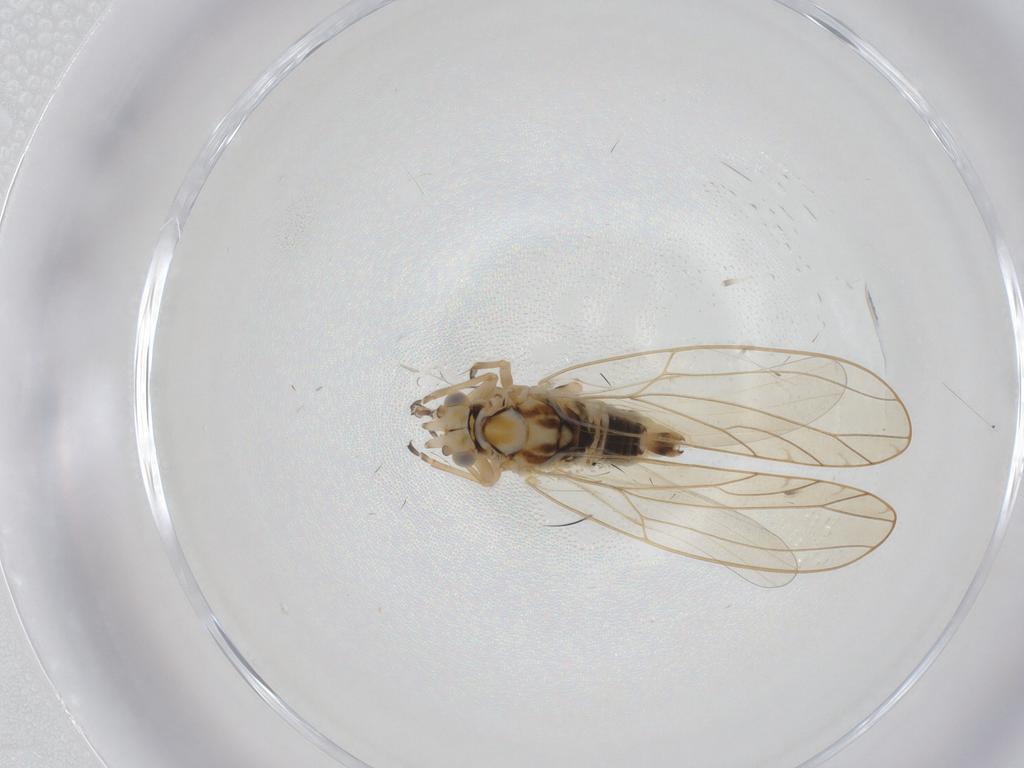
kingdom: Animalia
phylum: Arthropoda
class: Insecta
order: Hemiptera
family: Triozidae
